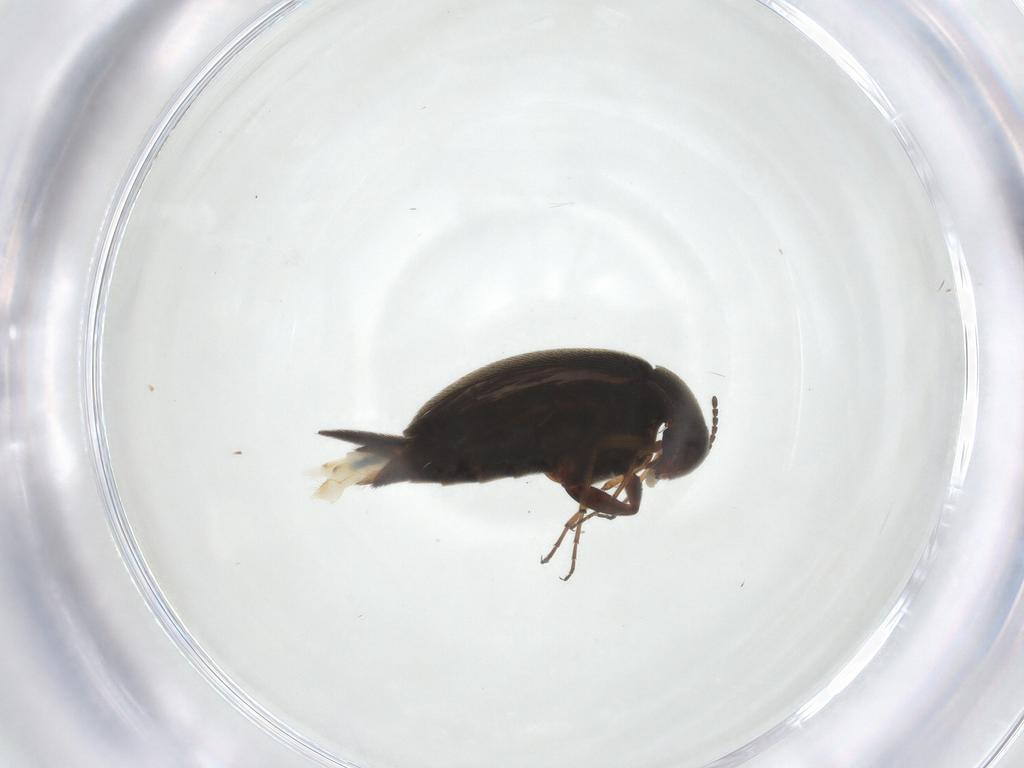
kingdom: Animalia
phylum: Arthropoda
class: Insecta
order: Coleoptera
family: Mordellidae
